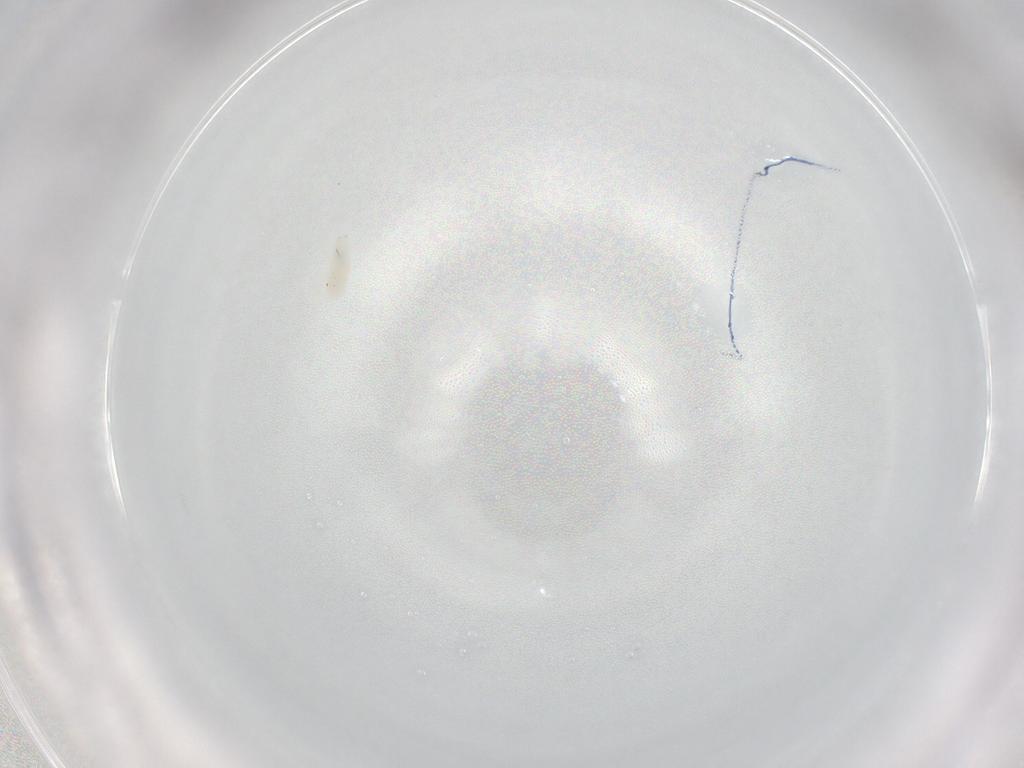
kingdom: Animalia
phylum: Arthropoda
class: Arachnida
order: Trombidiformes
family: Rhagidiidae
